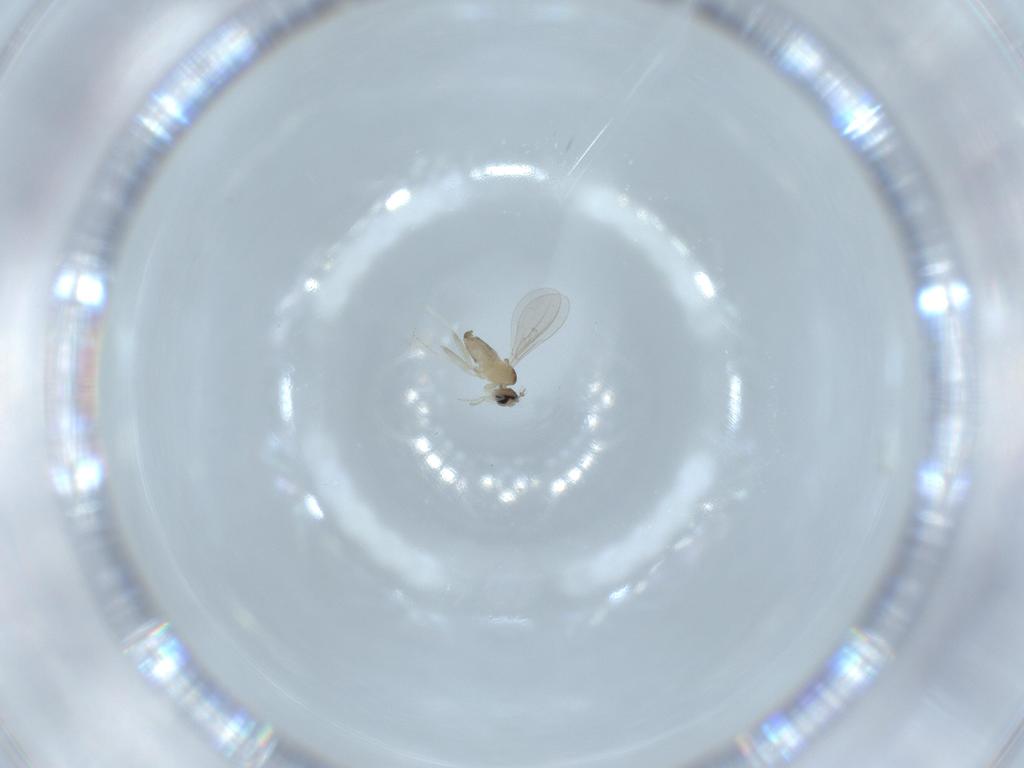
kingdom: Animalia
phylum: Arthropoda
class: Insecta
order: Diptera
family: Cecidomyiidae
